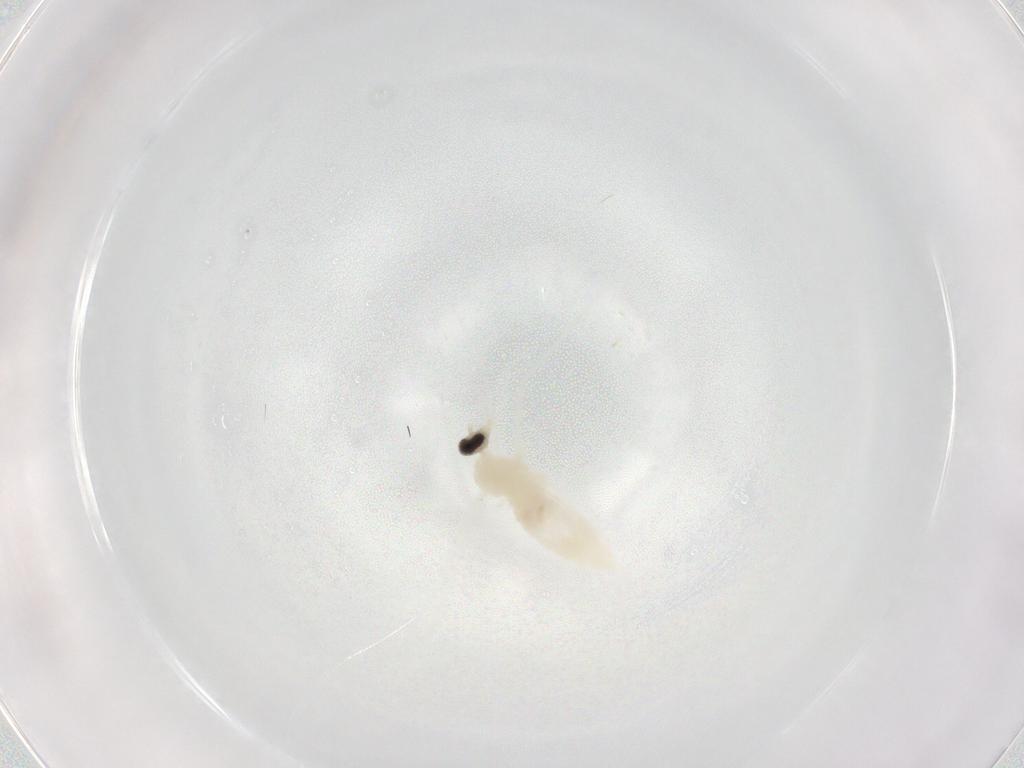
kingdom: Animalia
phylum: Arthropoda
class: Insecta
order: Diptera
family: Cecidomyiidae
